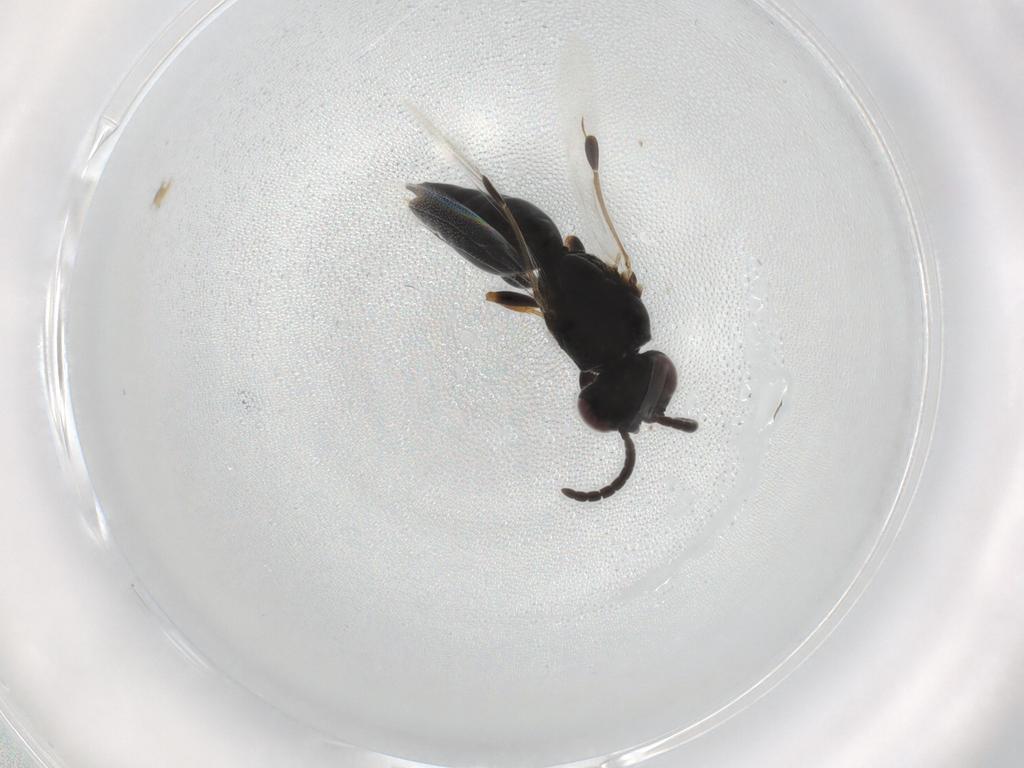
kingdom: Animalia
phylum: Arthropoda
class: Insecta
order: Hymenoptera
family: Megaspilidae
